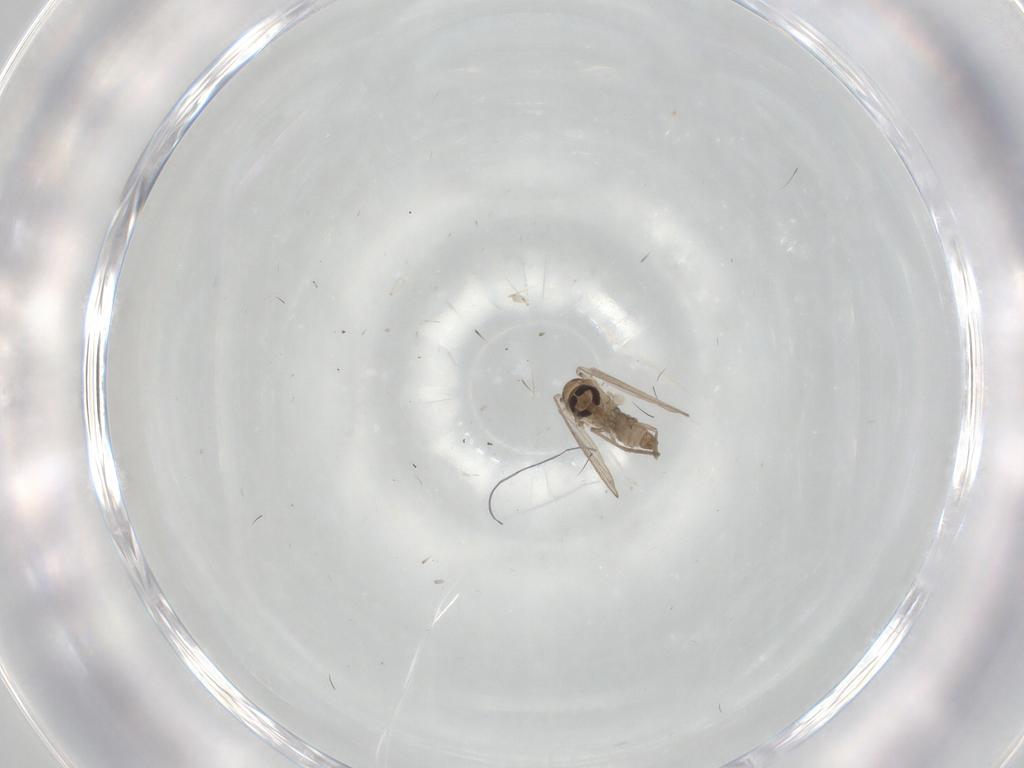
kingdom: Animalia
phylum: Arthropoda
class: Insecta
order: Diptera
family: Psychodidae
